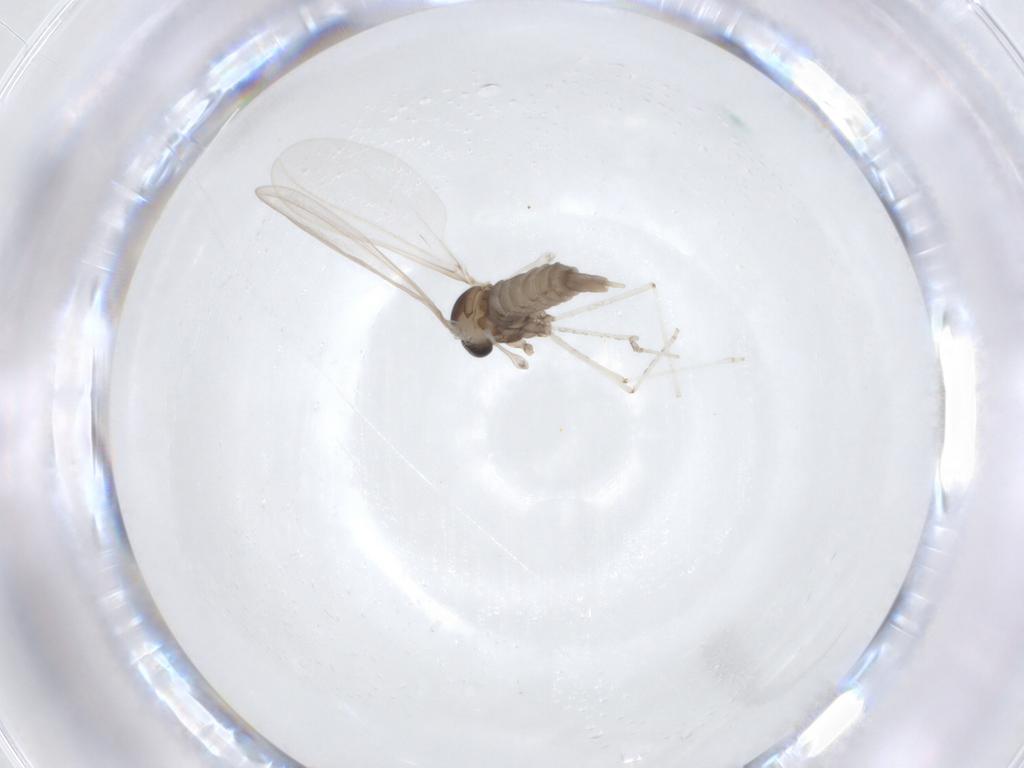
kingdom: Animalia
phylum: Arthropoda
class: Insecta
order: Diptera
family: Cecidomyiidae
